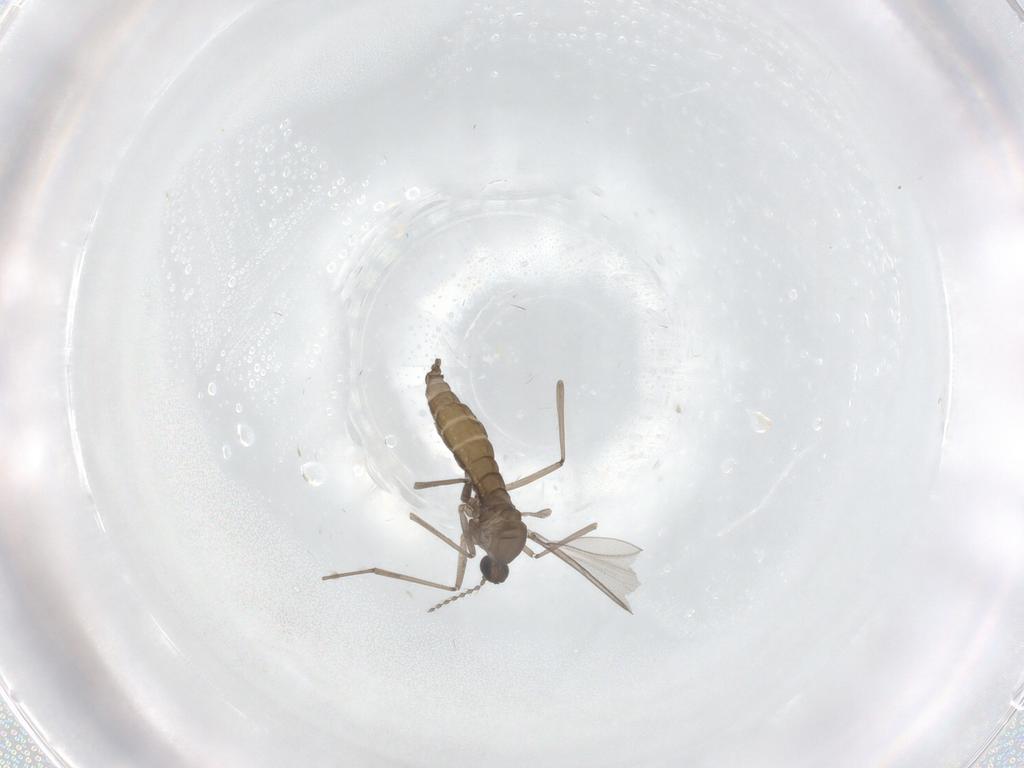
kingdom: Animalia
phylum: Arthropoda
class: Insecta
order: Diptera
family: Cecidomyiidae
